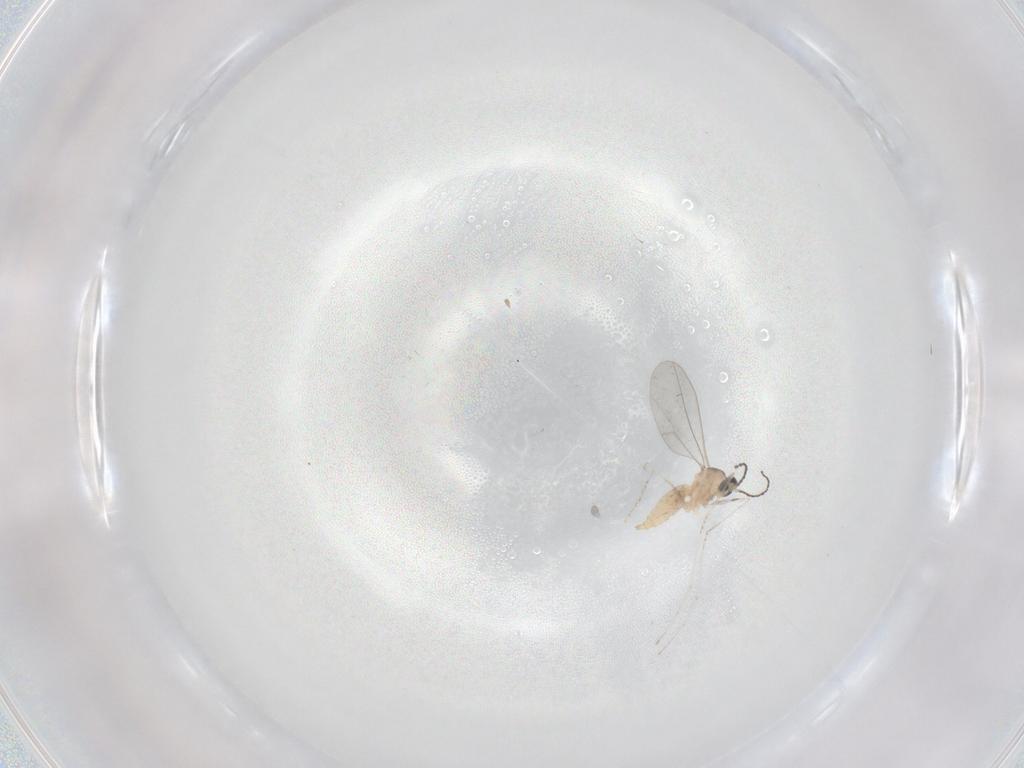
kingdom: Animalia
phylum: Arthropoda
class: Insecta
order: Diptera
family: Cecidomyiidae
